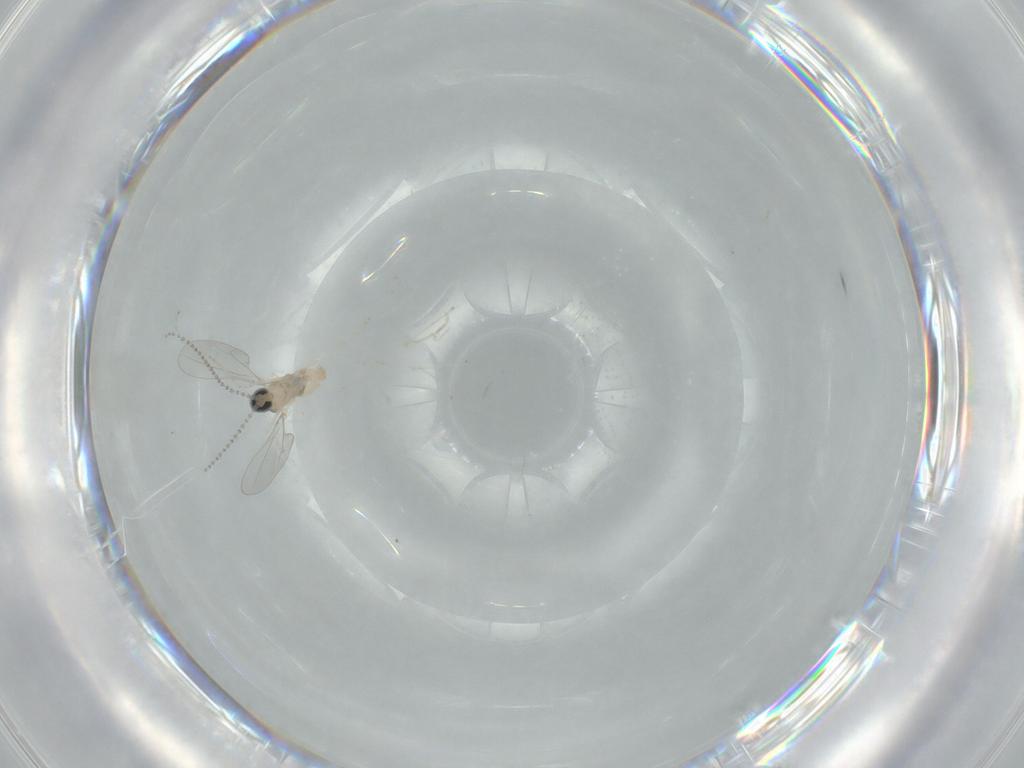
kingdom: Animalia
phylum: Arthropoda
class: Insecta
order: Diptera
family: Cecidomyiidae
